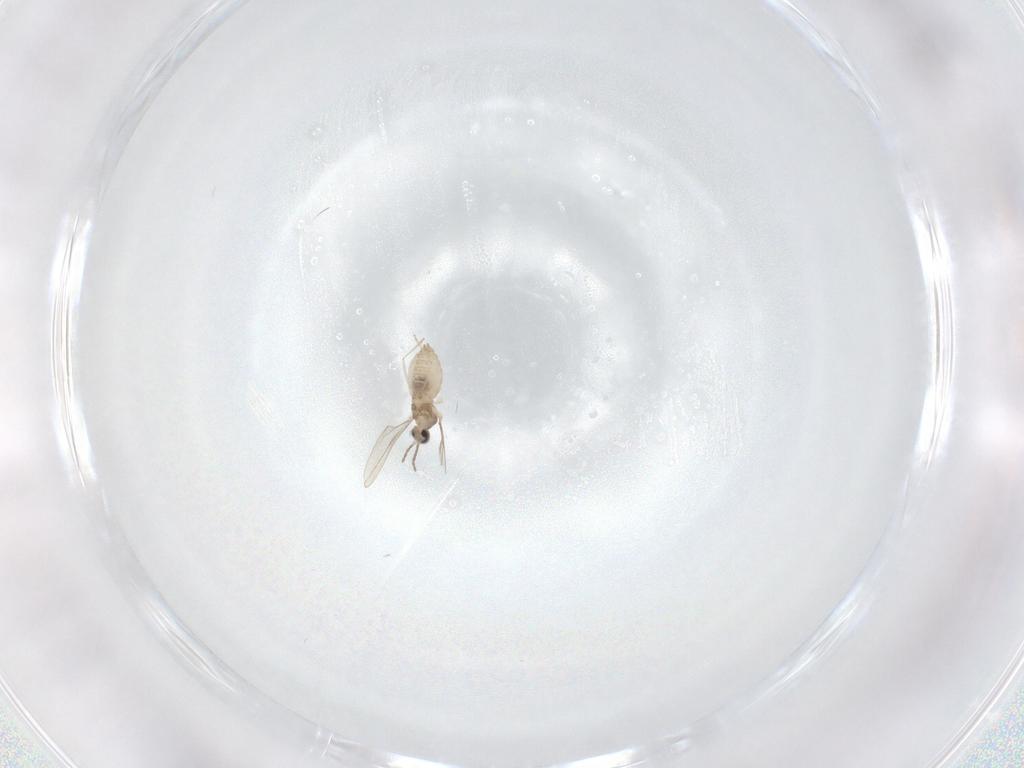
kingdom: Animalia
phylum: Arthropoda
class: Insecta
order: Diptera
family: Cecidomyiidae
